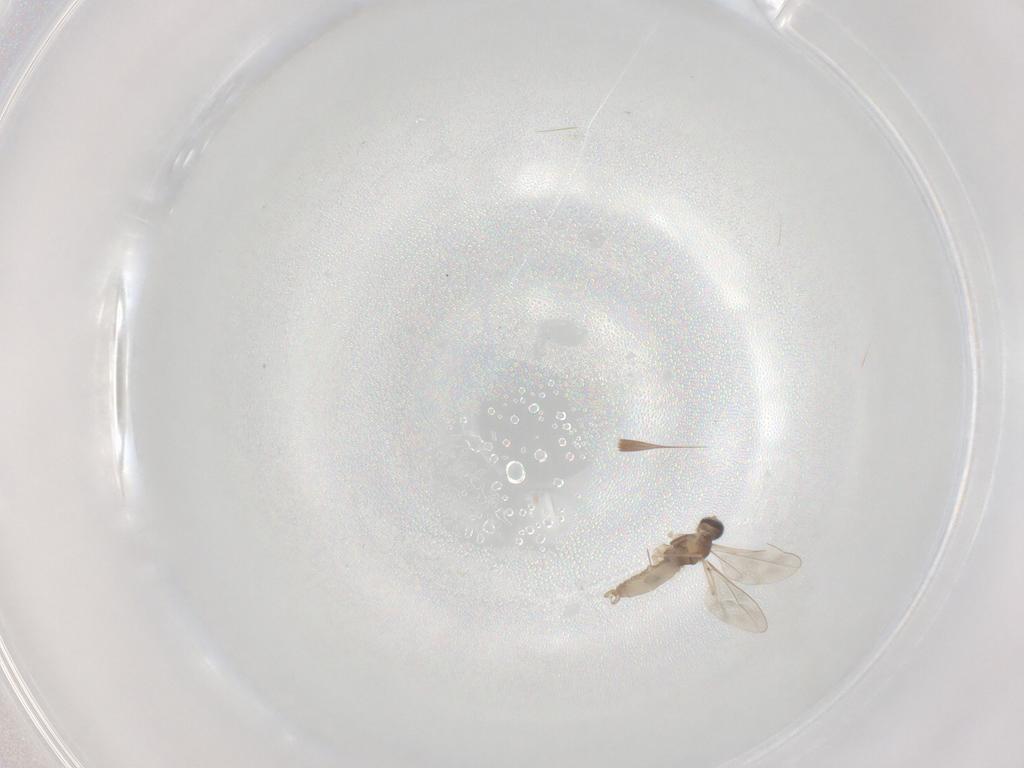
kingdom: Animalia
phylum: Arthropoda
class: Insecta
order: Diptera
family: Cecidomyiidae
